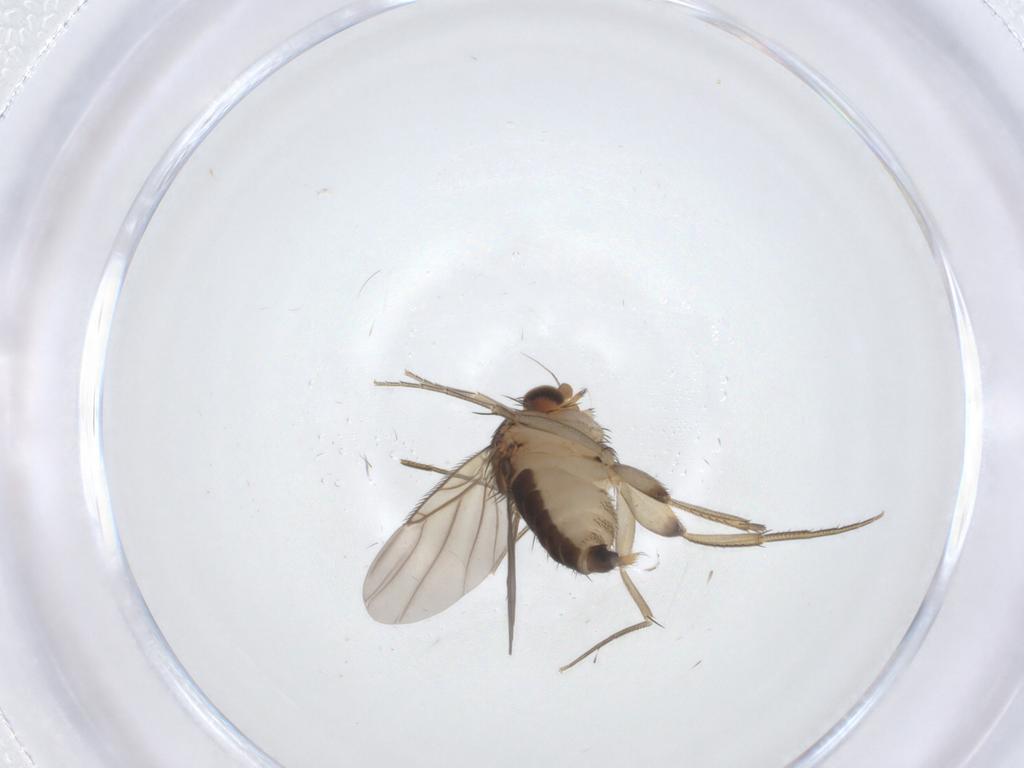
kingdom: Animalia
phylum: Arthropoda
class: Insecta
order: Diptera
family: Phoridae
